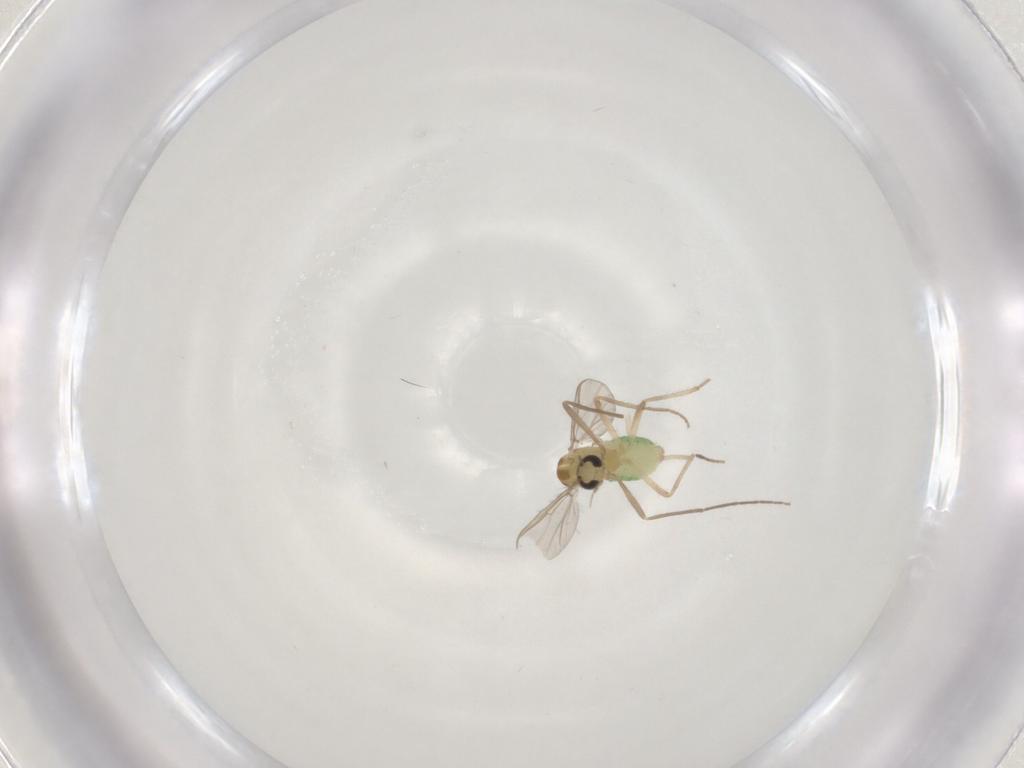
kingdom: Animalia
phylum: Arthropoda
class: Insecta
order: Diptera
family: Chironomidae
